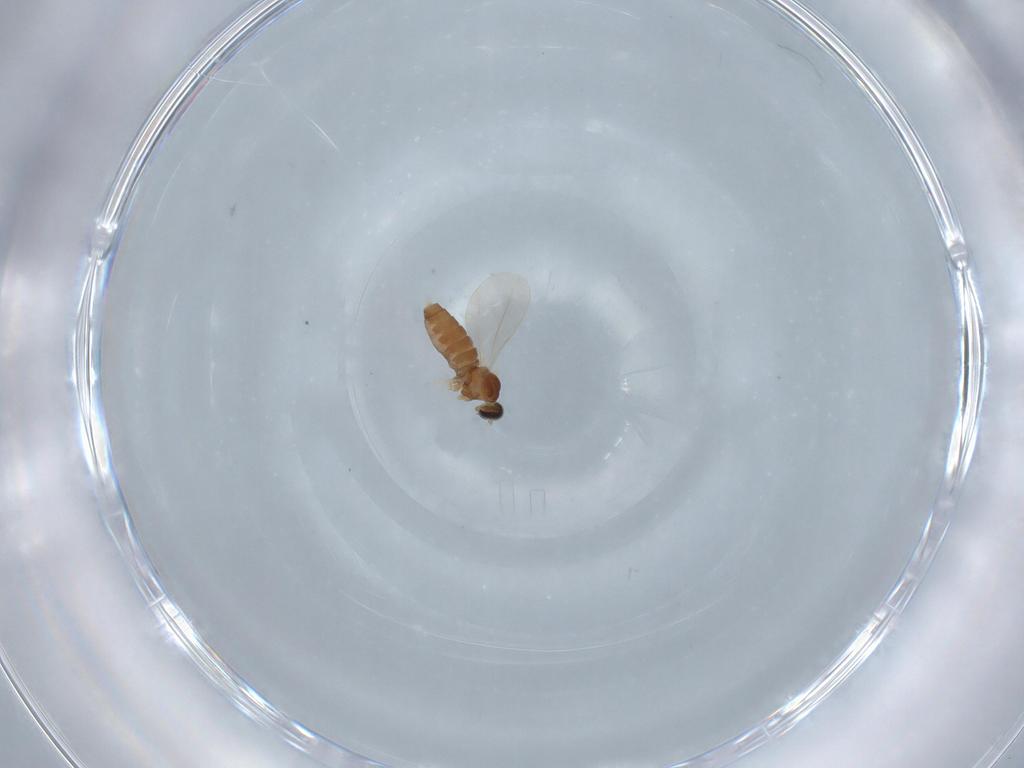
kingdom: Animalia
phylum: Arthropoda
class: Insecta
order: Diptera
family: Cecidomyiidae
